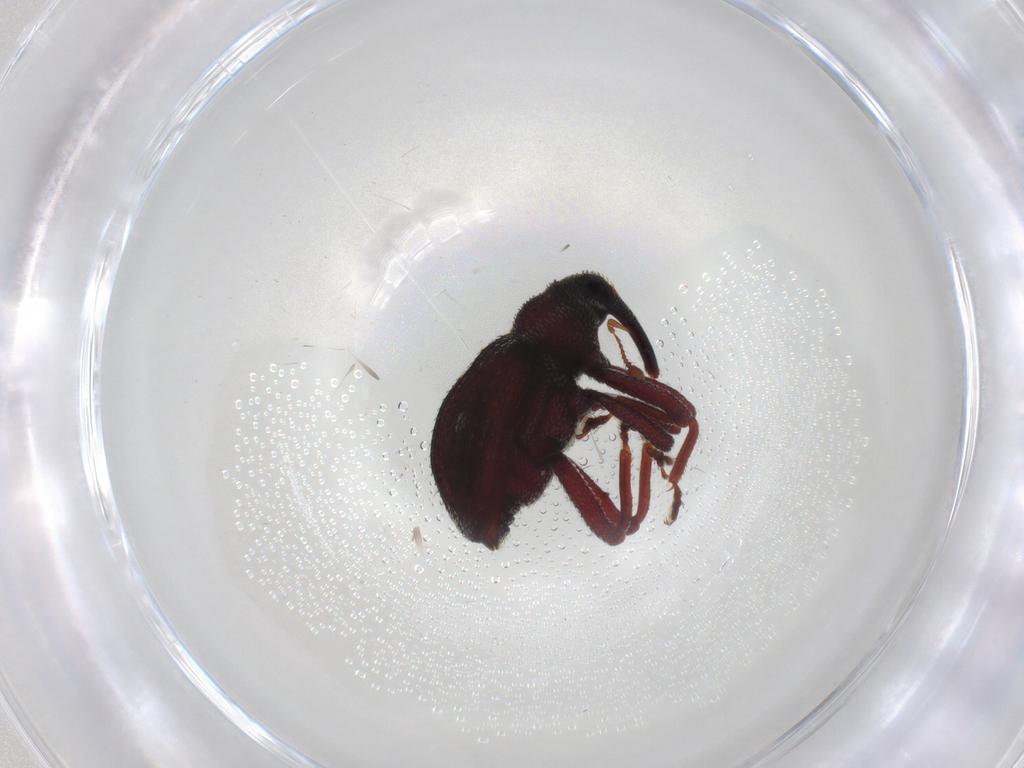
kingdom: Animalia
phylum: Arthropoda
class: Insecta
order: Coleoptera
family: Curculionidae
